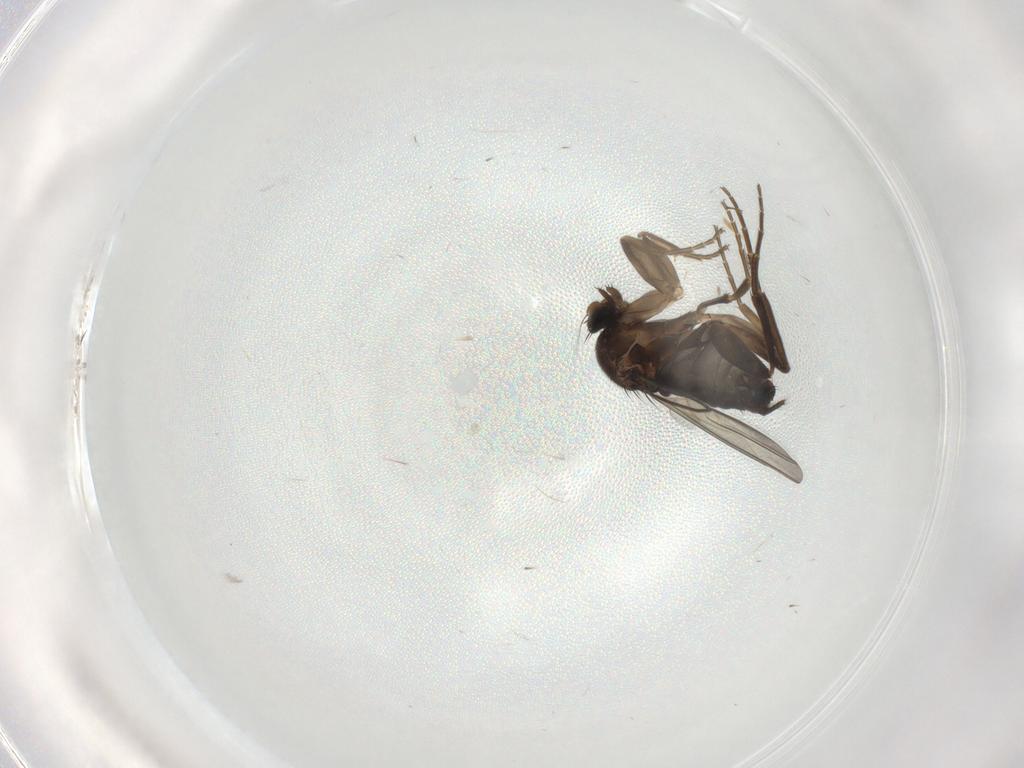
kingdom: Animalia
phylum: Arthropoda
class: Insecta
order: Diptera
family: Cecidomyiidae
